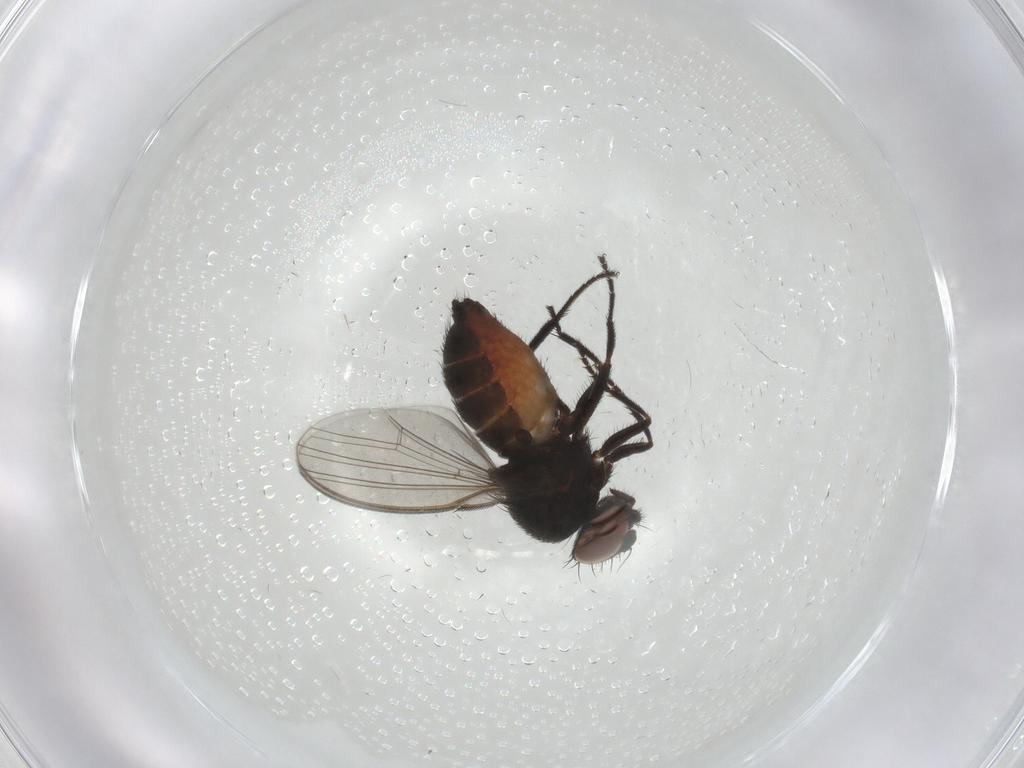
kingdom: Animalia
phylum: Arthropoda
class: Insecta
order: Diptera
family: Milichiidae
